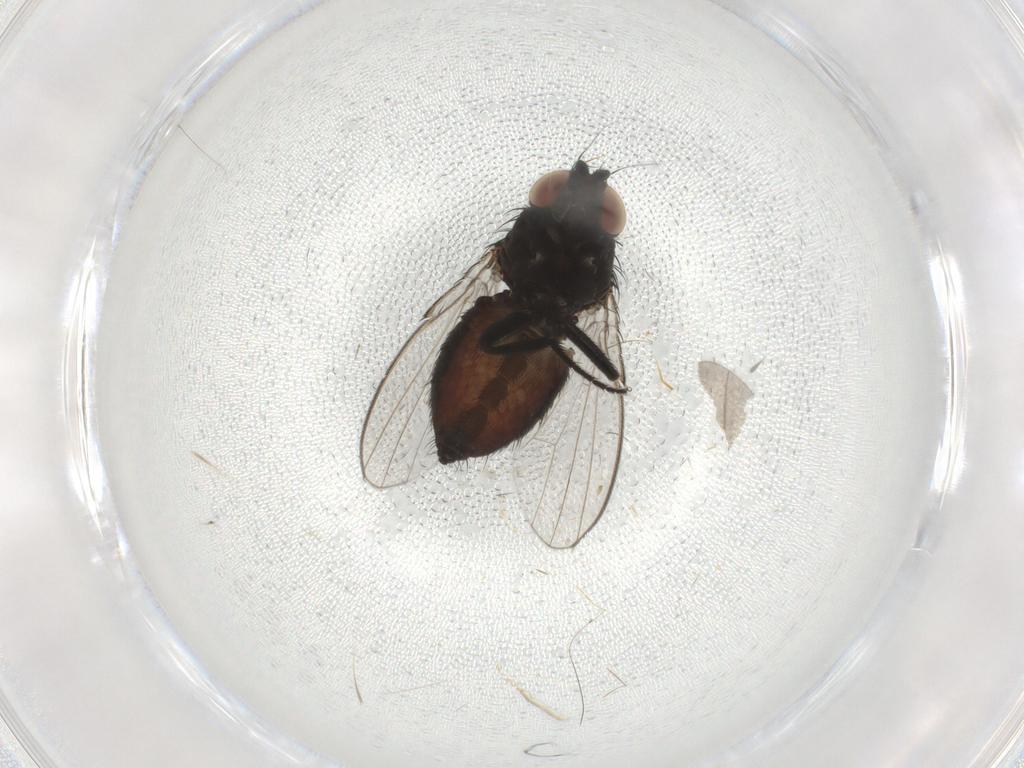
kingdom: Animalia
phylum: Arthropoda
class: Insecta
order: Diptera
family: Milichiidae
